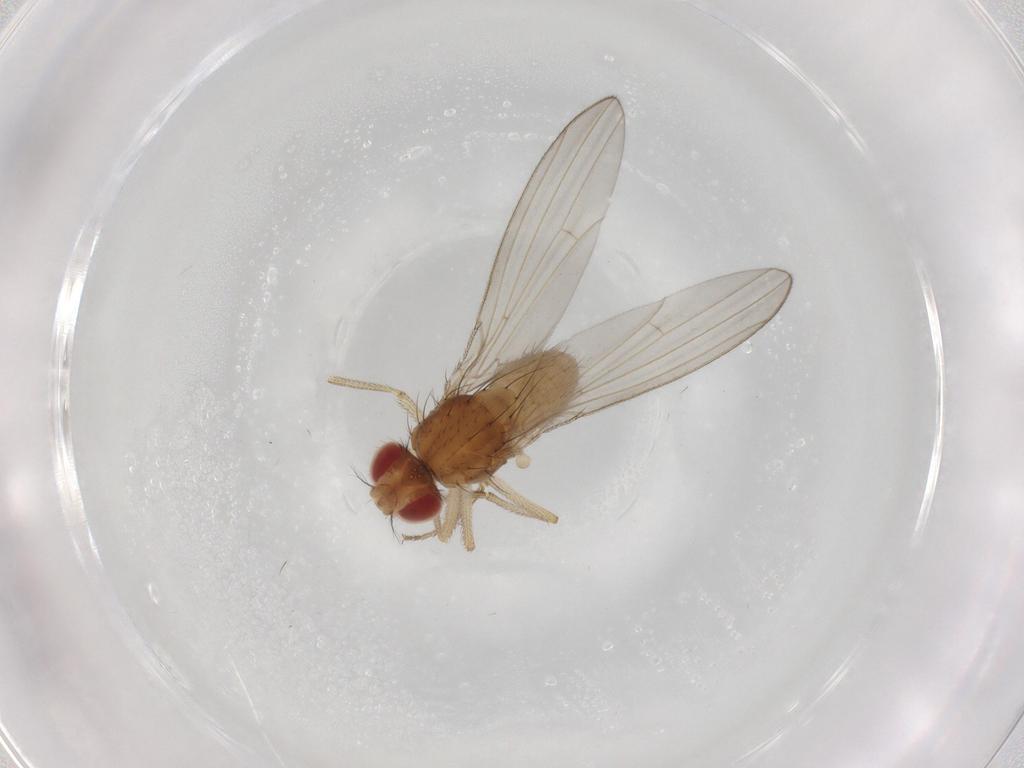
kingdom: Animalia
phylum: Arthropoda
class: Insecta
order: Diptera
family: Drosophilidae
